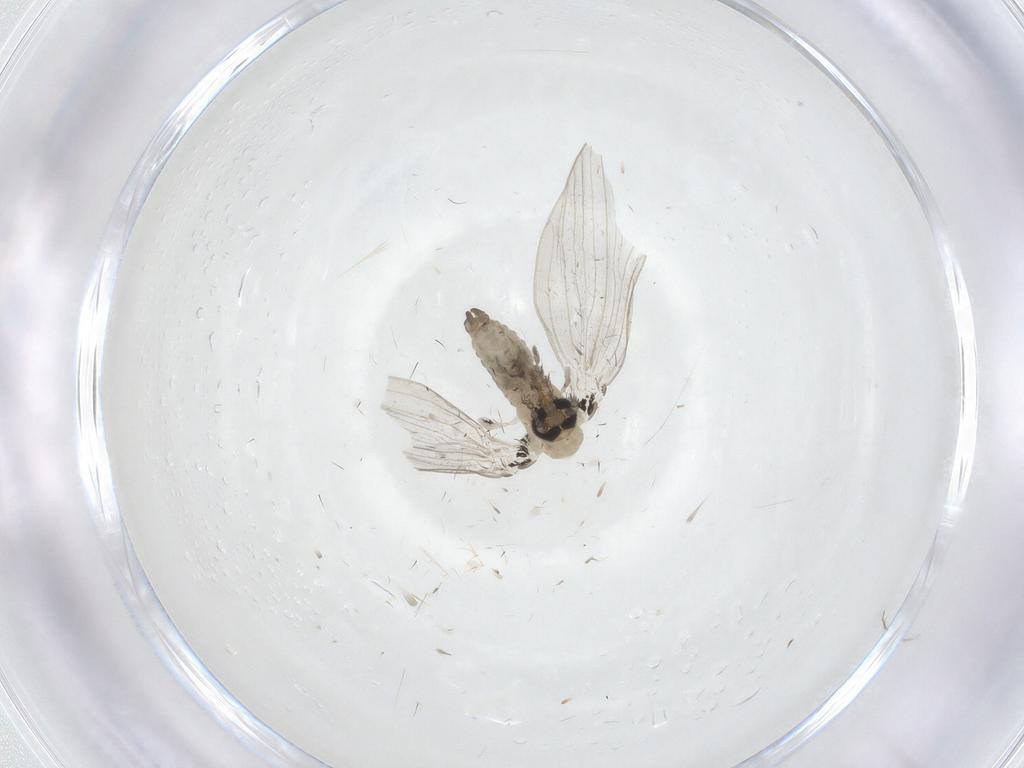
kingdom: Animalia
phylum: Arthropoda
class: Insecta
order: Diptera
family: Psychodidae
